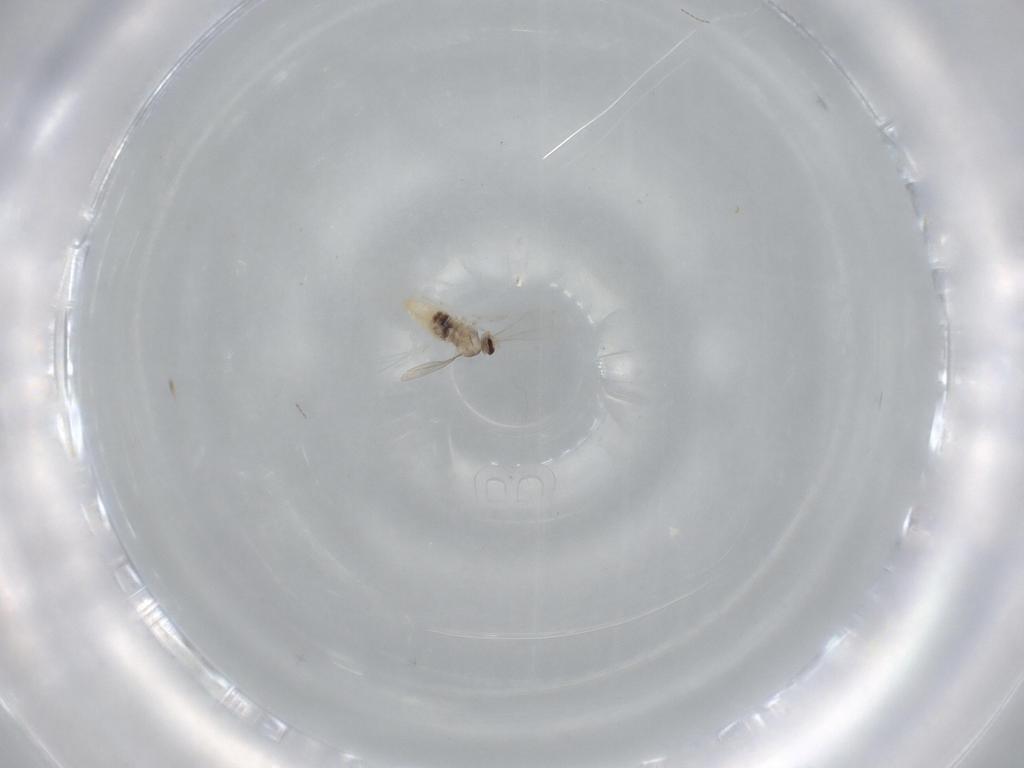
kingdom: Animalia
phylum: Arthropoda
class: Insecta
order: Diptera
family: Cecidomyiidae
